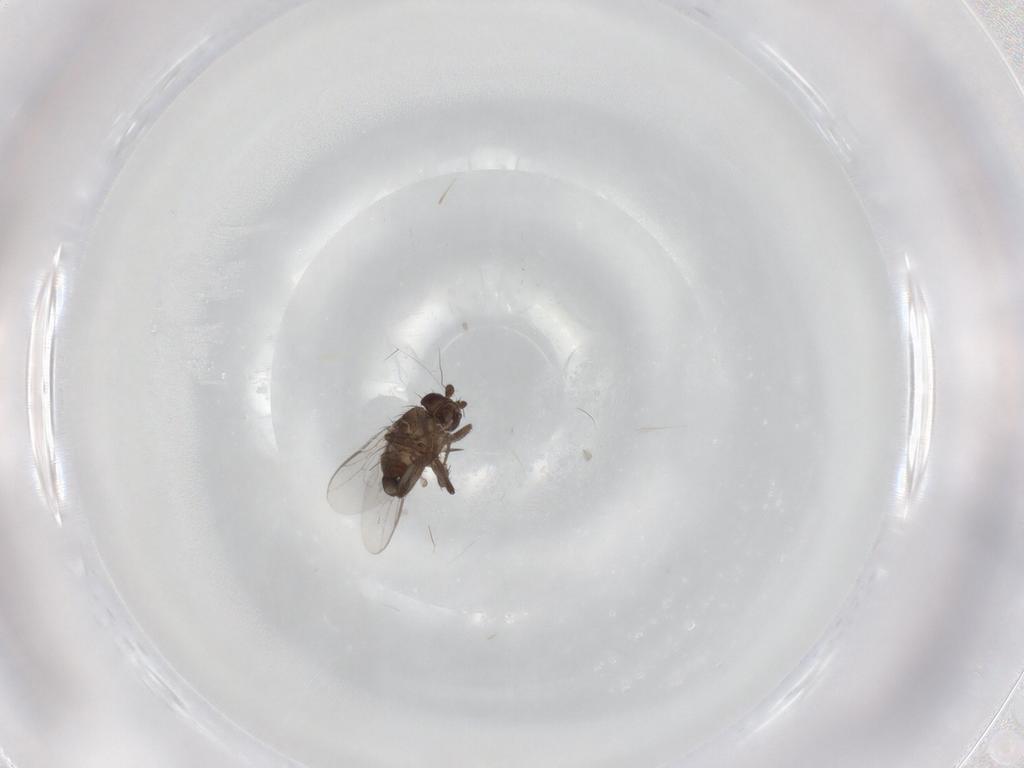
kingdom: Animalia
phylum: Arthropoda
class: Insecta
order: Diptera
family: Sphaeroceridae
